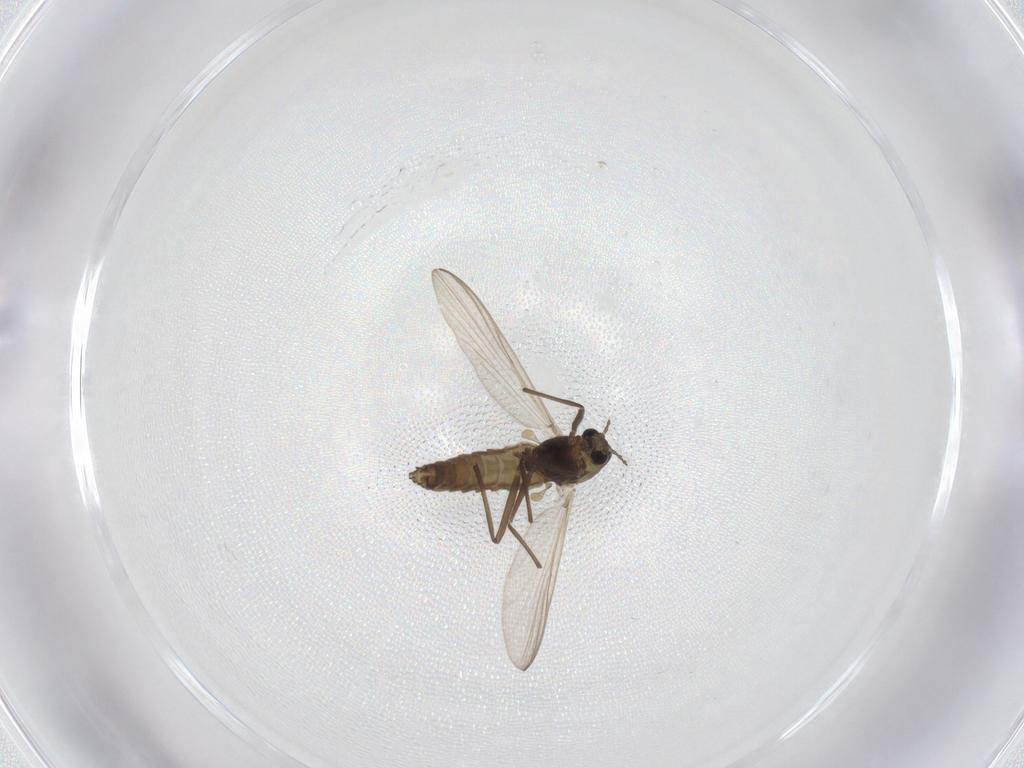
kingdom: Animalia
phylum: Arthropoda
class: Insecta
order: Diptera
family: Chironomidae
